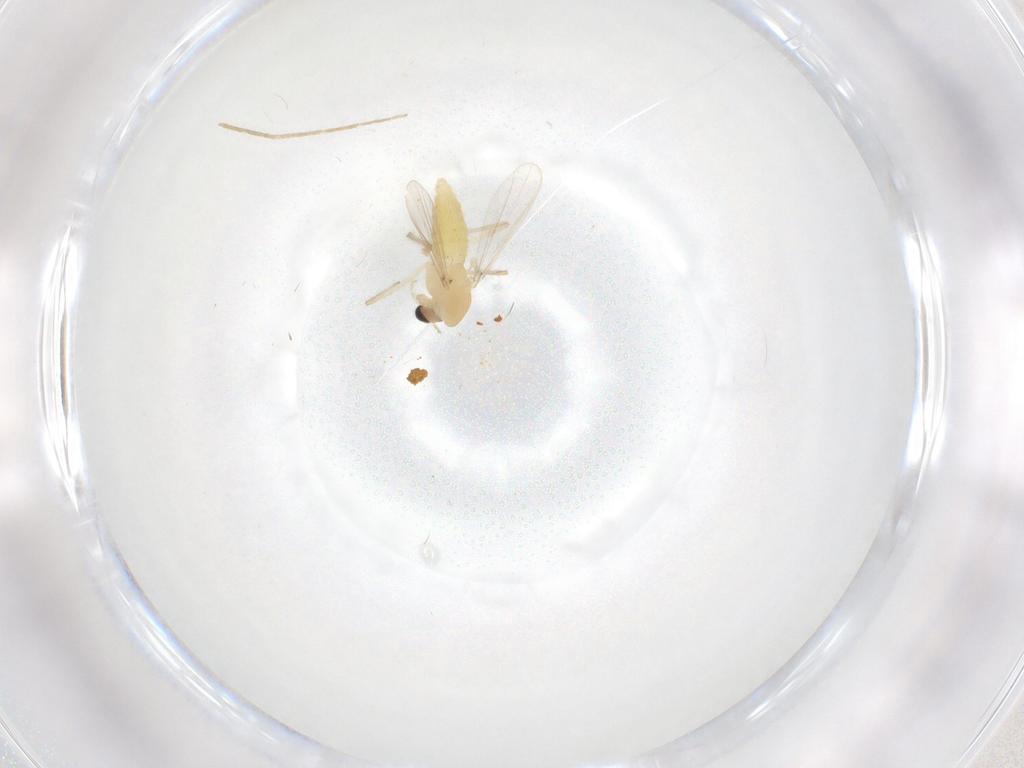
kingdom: Animalia
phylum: Arthropoda
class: Insecta
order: Diptera
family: Chironomidae
